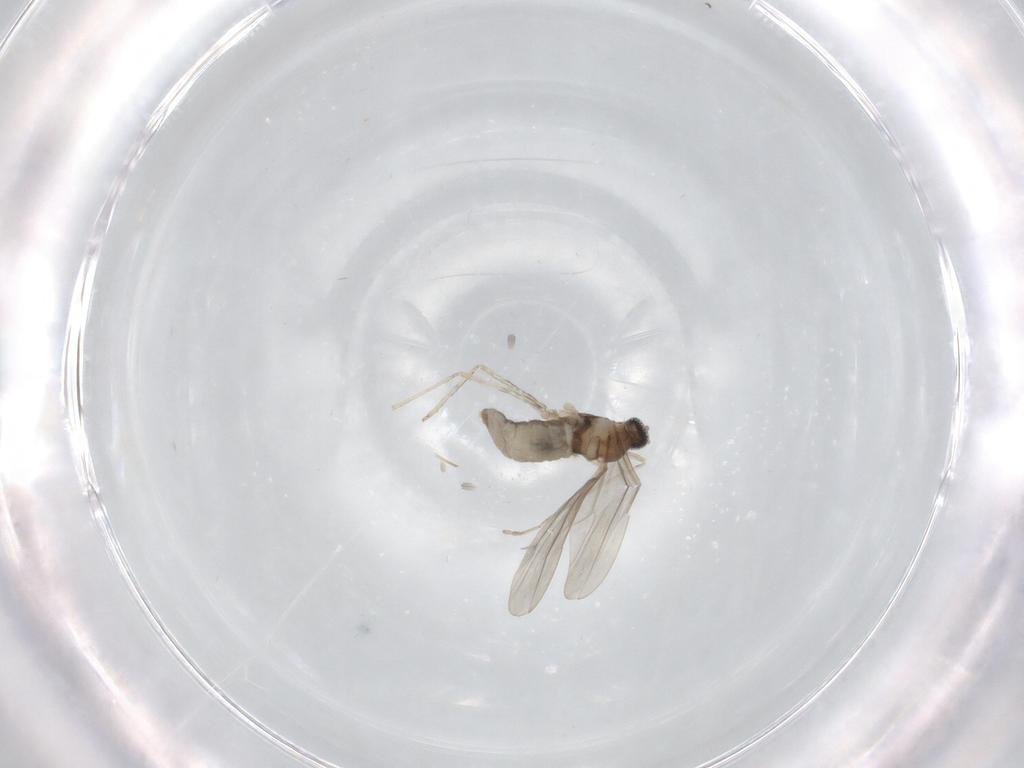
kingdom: Animalia
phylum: Arthropoda
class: Insecta
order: Diptera
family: Cecidomyiidae
